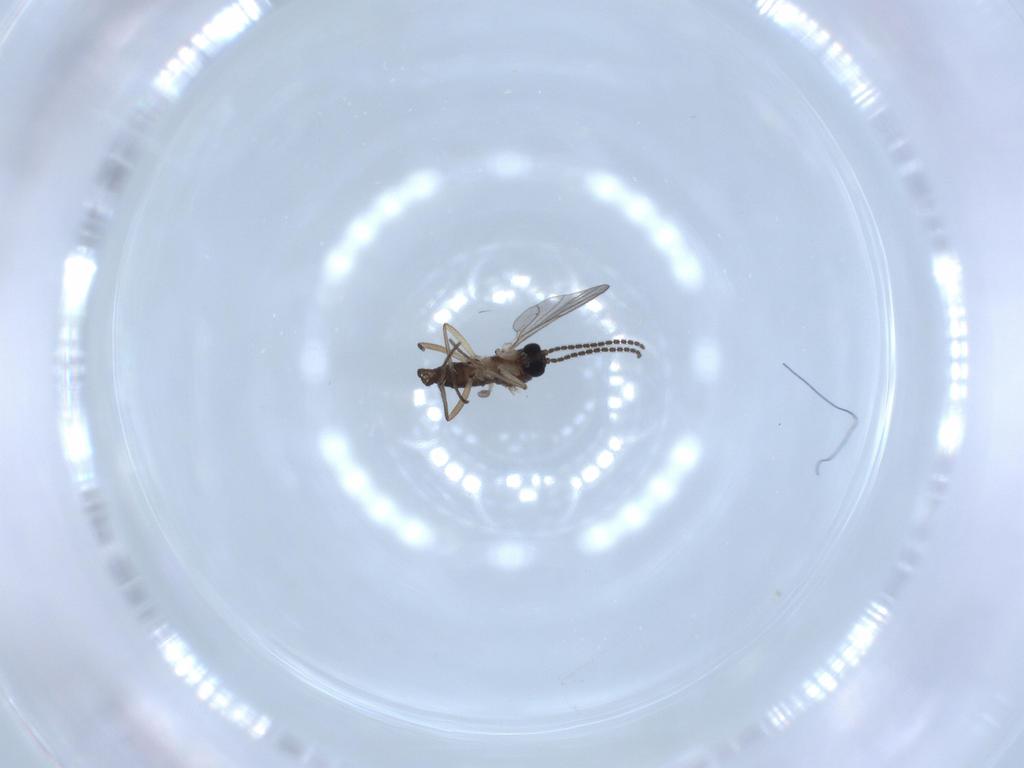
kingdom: Animalia
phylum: Arthropoda
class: Insecta
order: Diptera
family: Sciaridae
